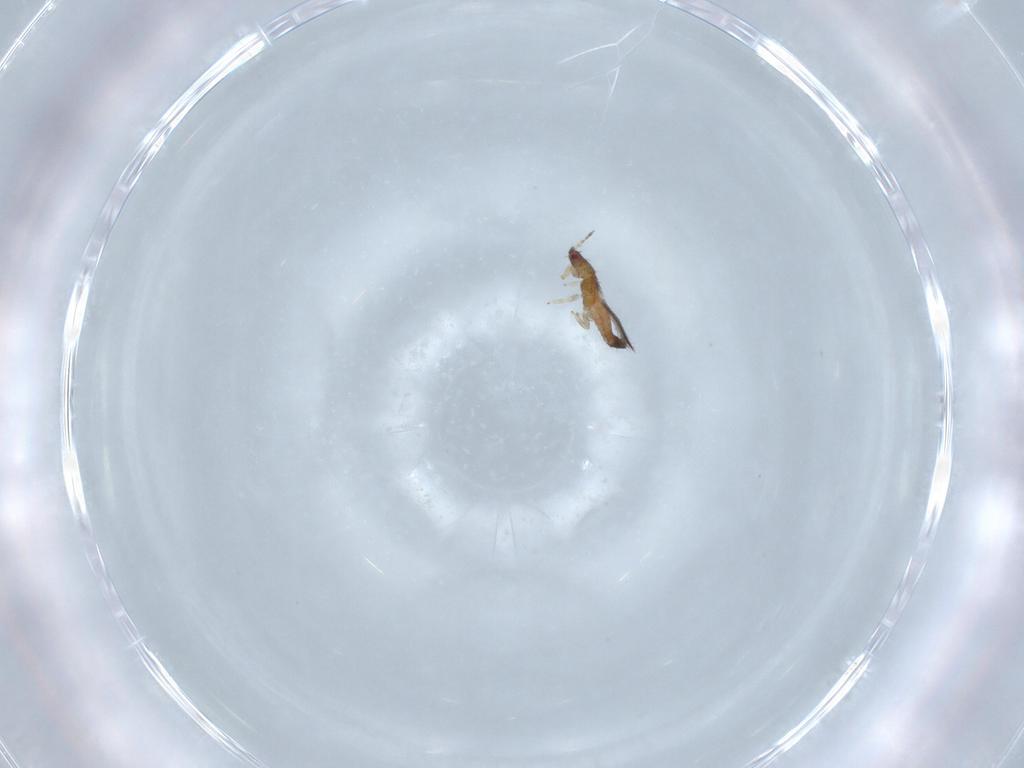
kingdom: Animalia
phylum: Arthropoda
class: Insecta
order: Thysanoptera
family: Thripidae
